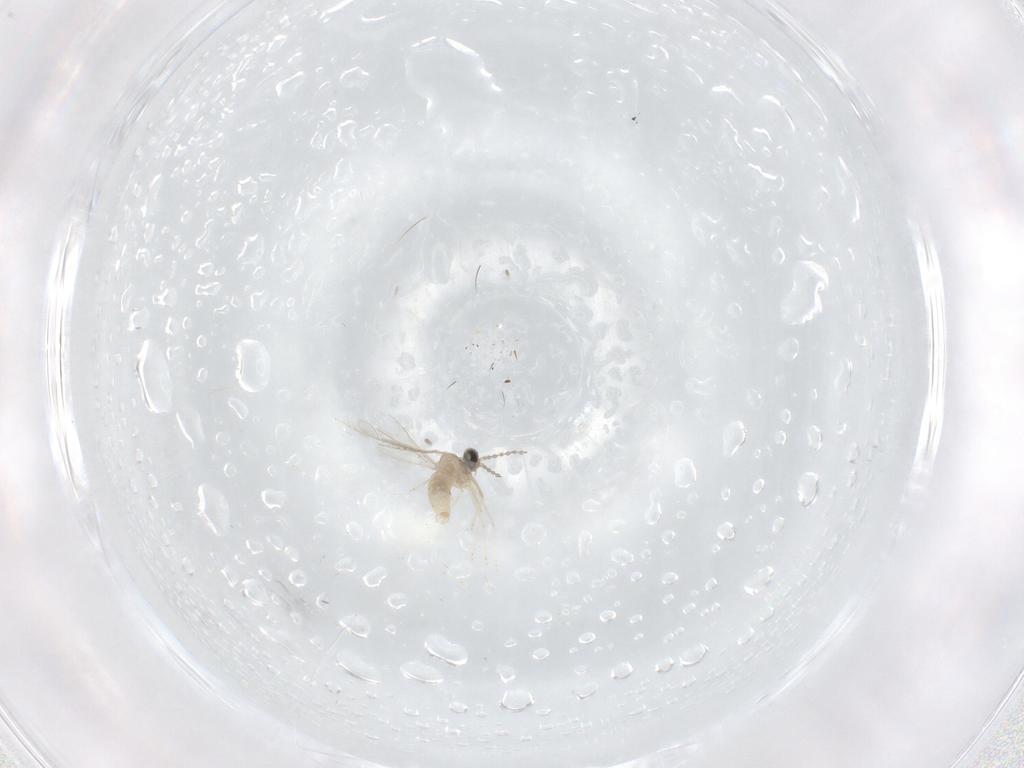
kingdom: Animalia
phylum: Arthropoda
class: Insecta
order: Diptera
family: Cecidomyiidae
